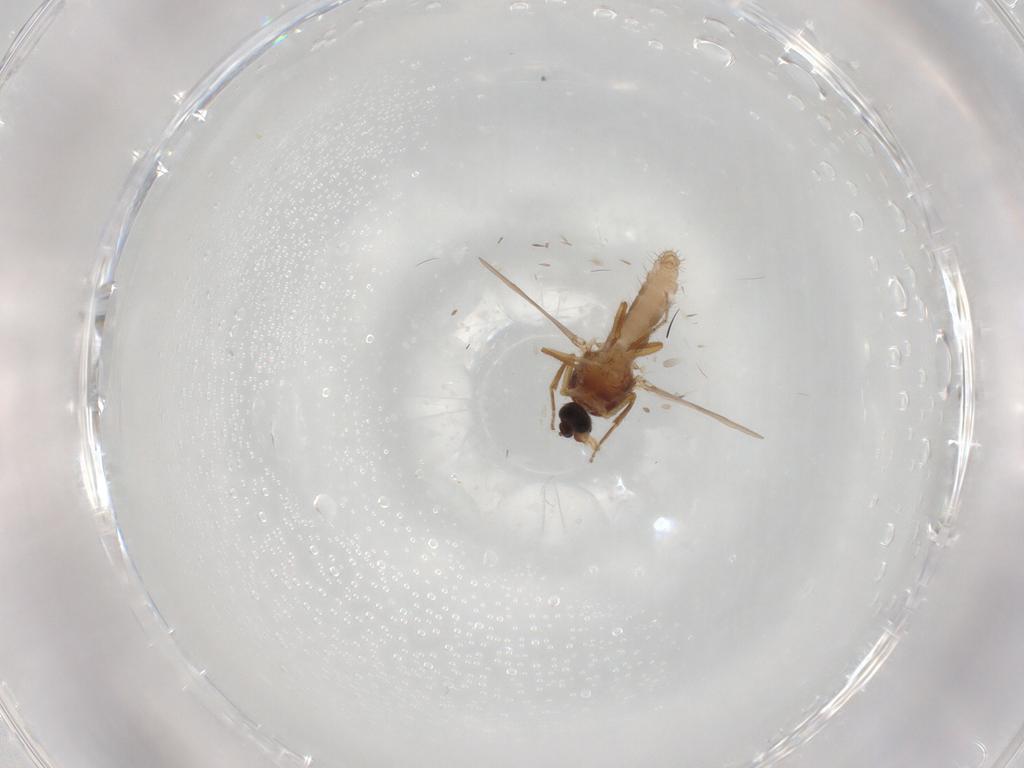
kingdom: Animalia
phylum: Arthropoda
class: Insecta
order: Diptera
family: Ceratopogonidae
